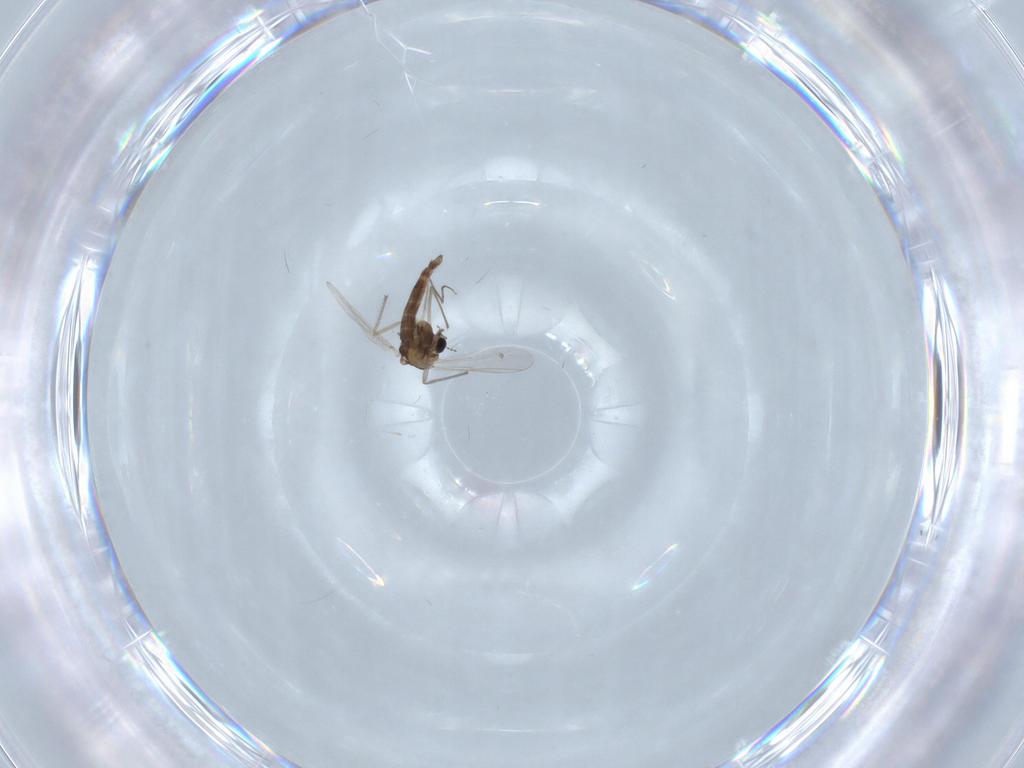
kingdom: Animalia
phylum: Arthropoda
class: Insecta
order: Diptera
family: Chironomidae
